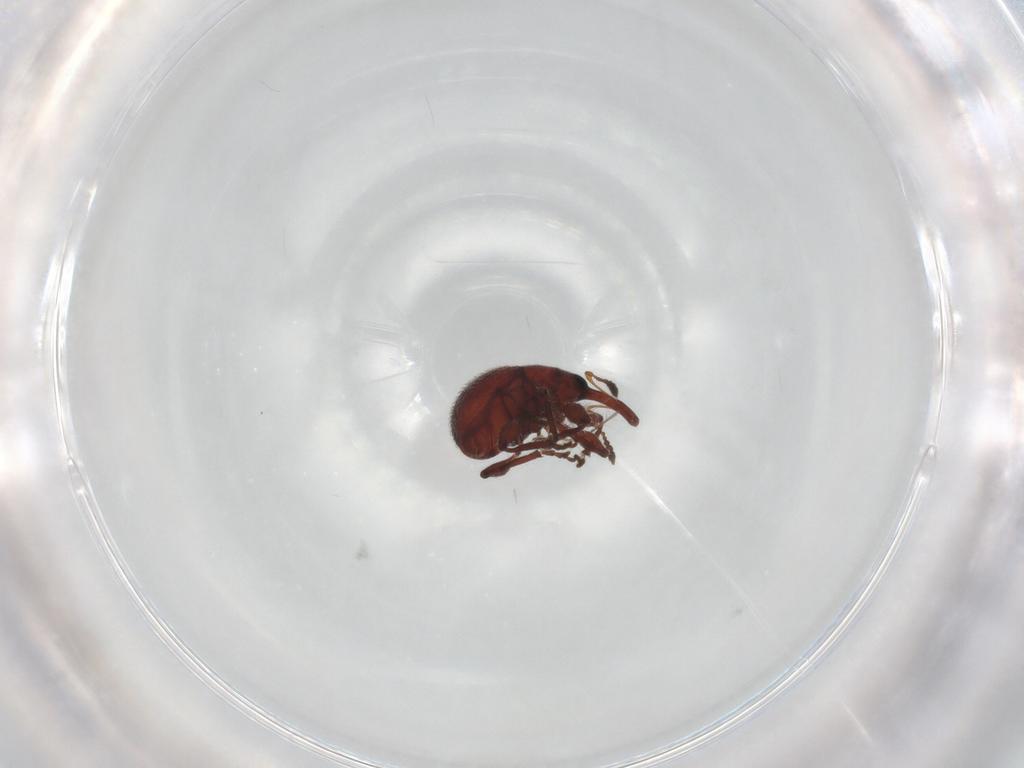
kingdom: Animalia
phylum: Arthropoda
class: Insecta
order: Coleoptera
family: Brentidae
